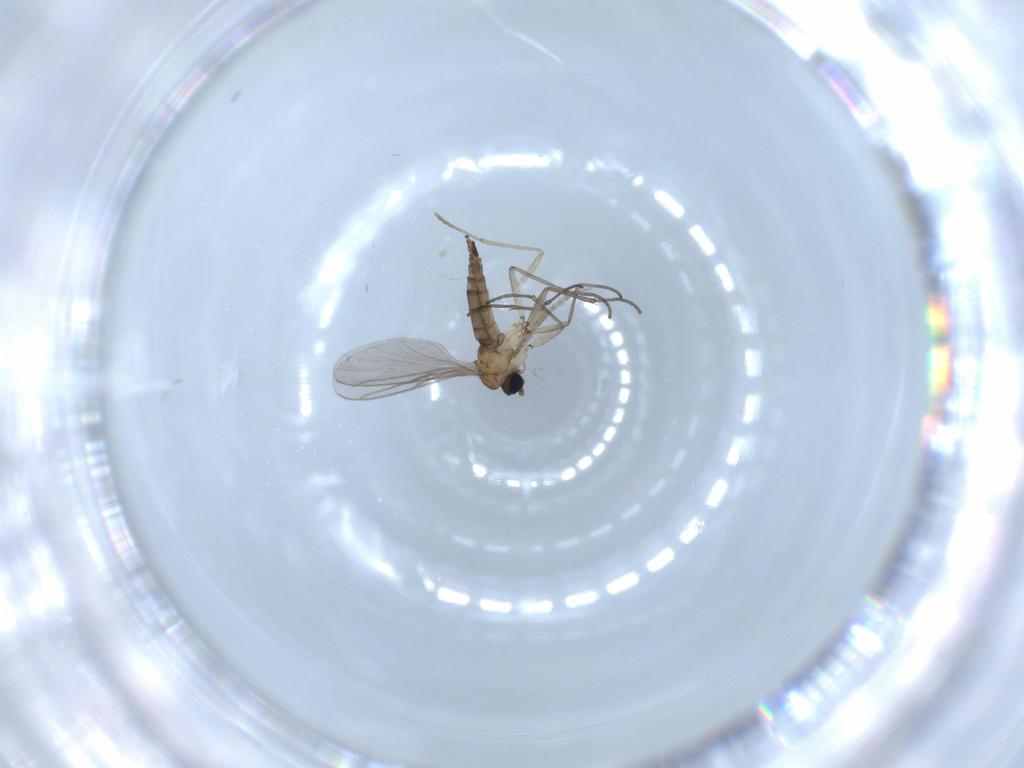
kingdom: Animalia
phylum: Arthropoda
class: Insecta
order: Diptera
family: Sciaridae
